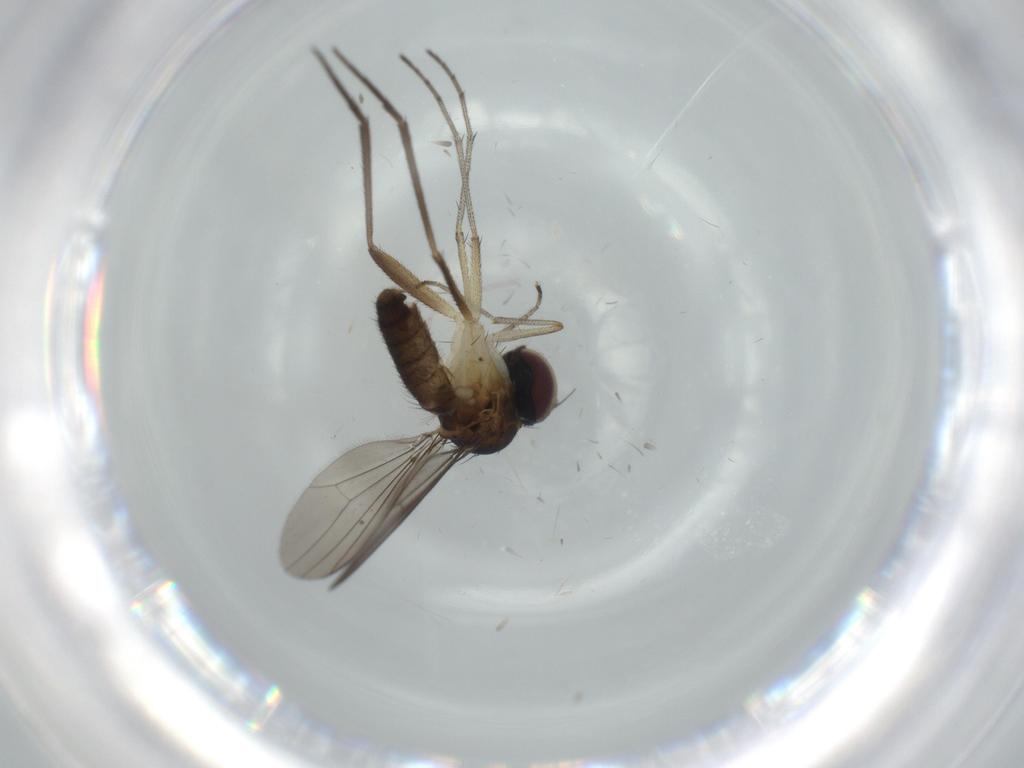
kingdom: Animalia
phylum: Arthropoda
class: Insecta
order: Diptera
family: Dolichopodidae
